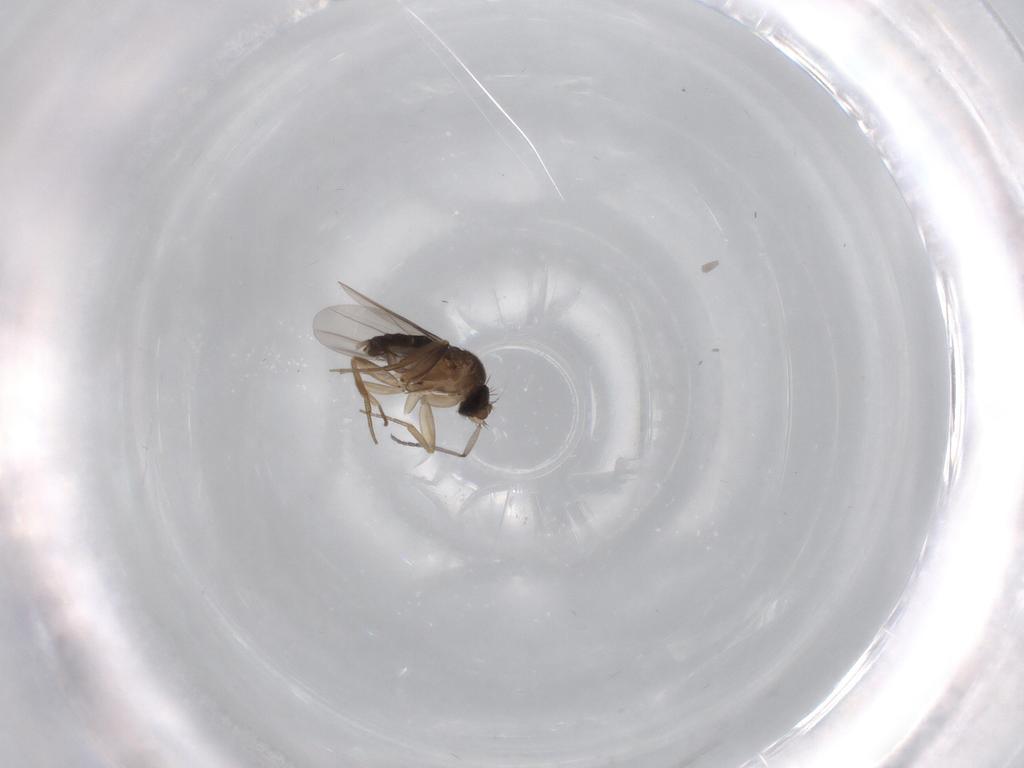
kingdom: Animalia
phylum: Arthropoda
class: Insecta
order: Diptera
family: Phoridae
